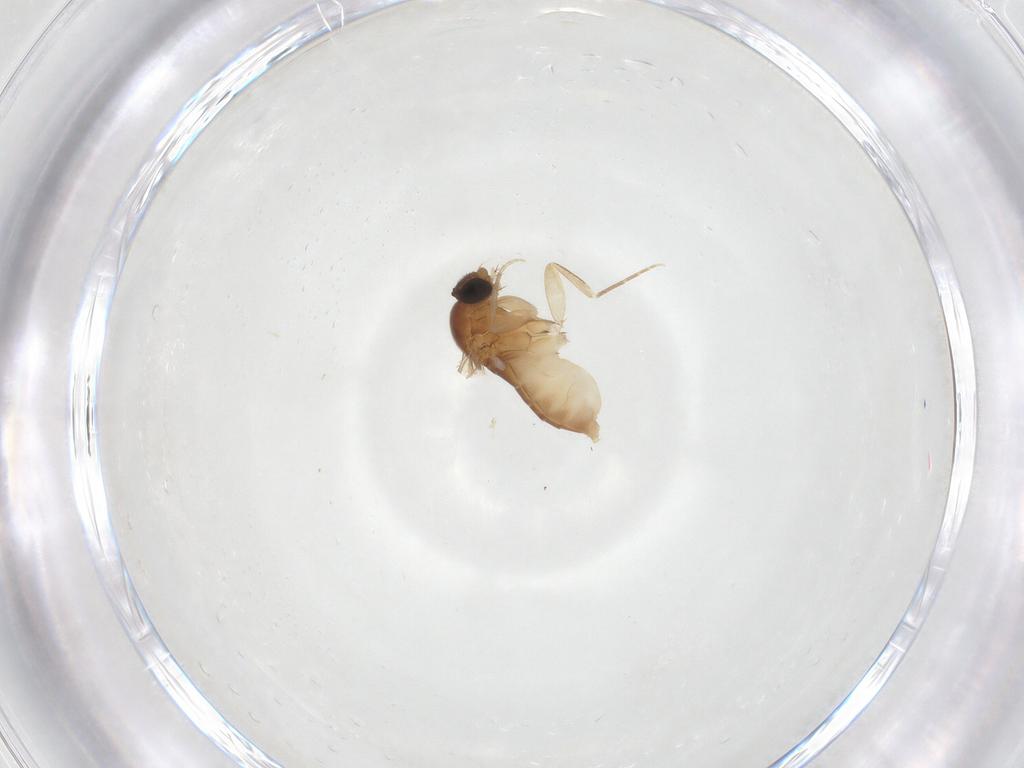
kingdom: Animalia
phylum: Arthropoda
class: Insecta
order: Diptera
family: Phoridae
